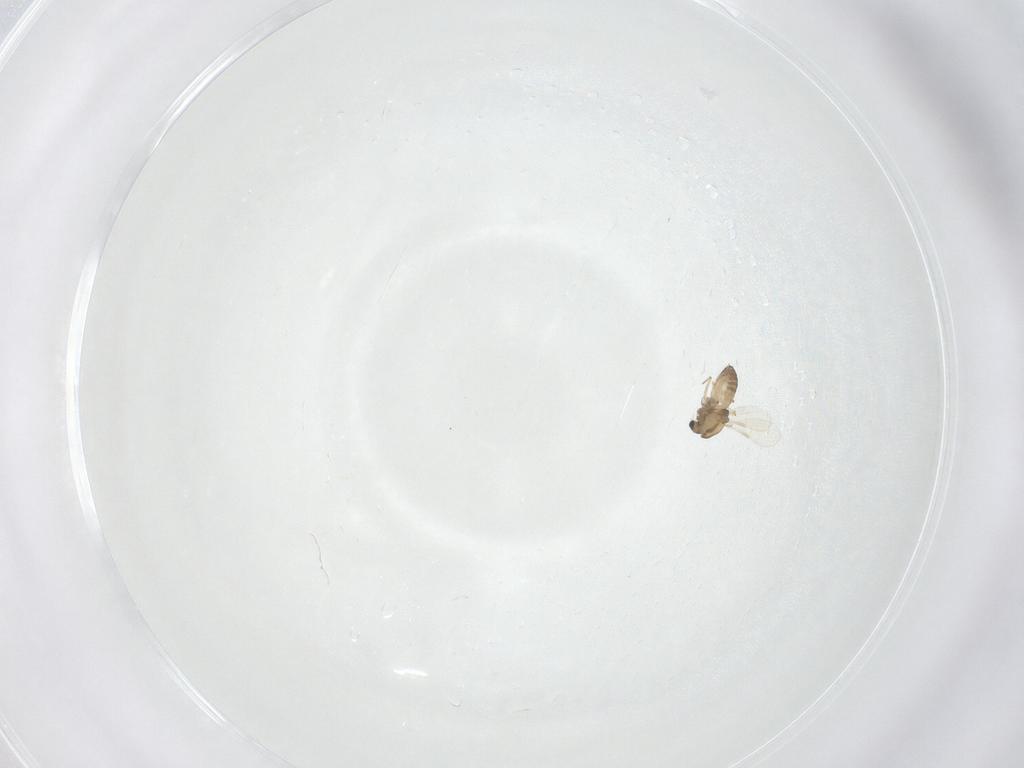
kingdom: Animalia
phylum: Arthropoda
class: Insecta
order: Diptera
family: Chironomidae
